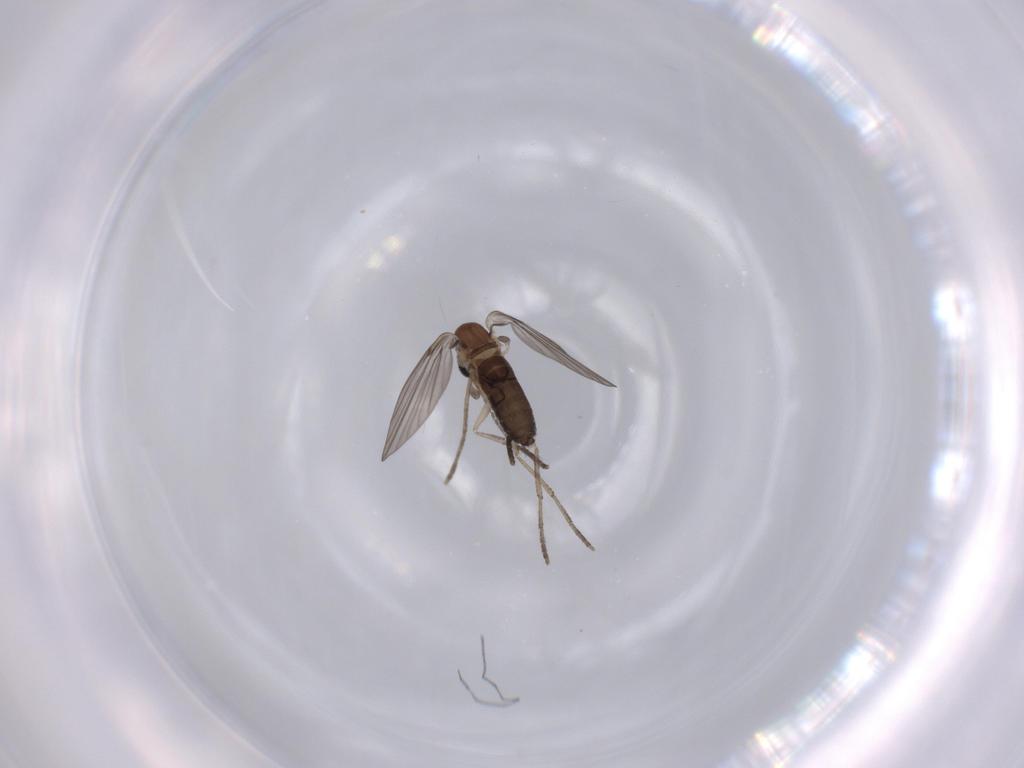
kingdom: Animalia
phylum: Arthropoda
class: Insecta
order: Diptera
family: Psychodidae
